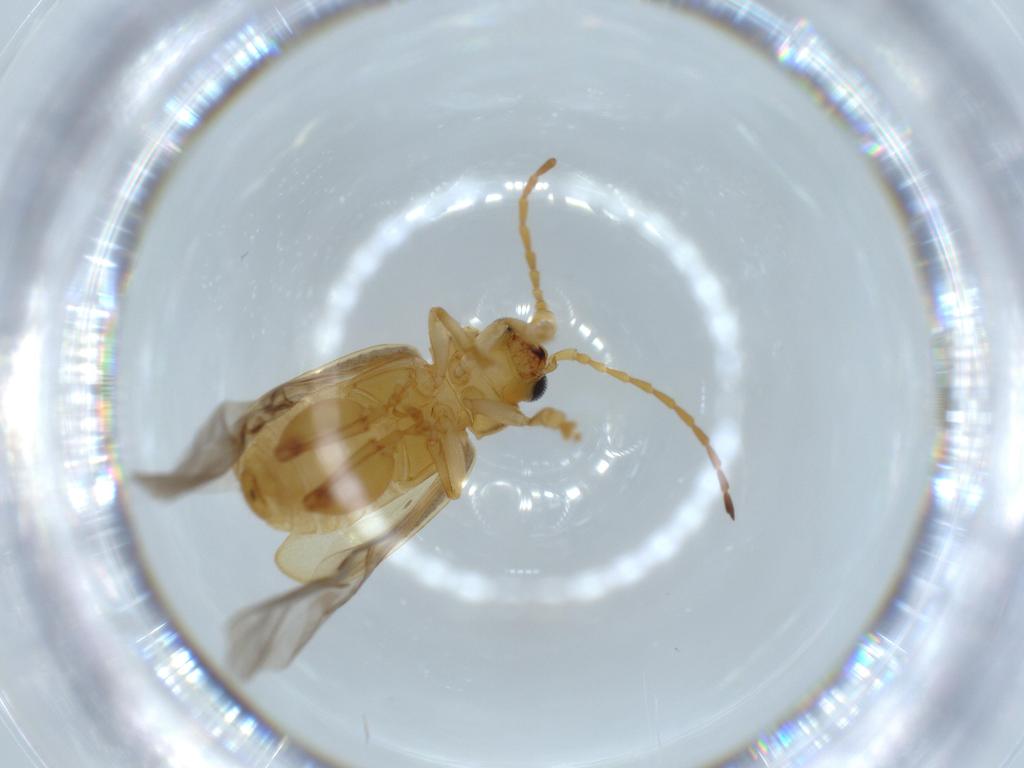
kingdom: Animalia
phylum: Arthropoda
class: Insecta
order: Coleoptera
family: Chrysomelidae
